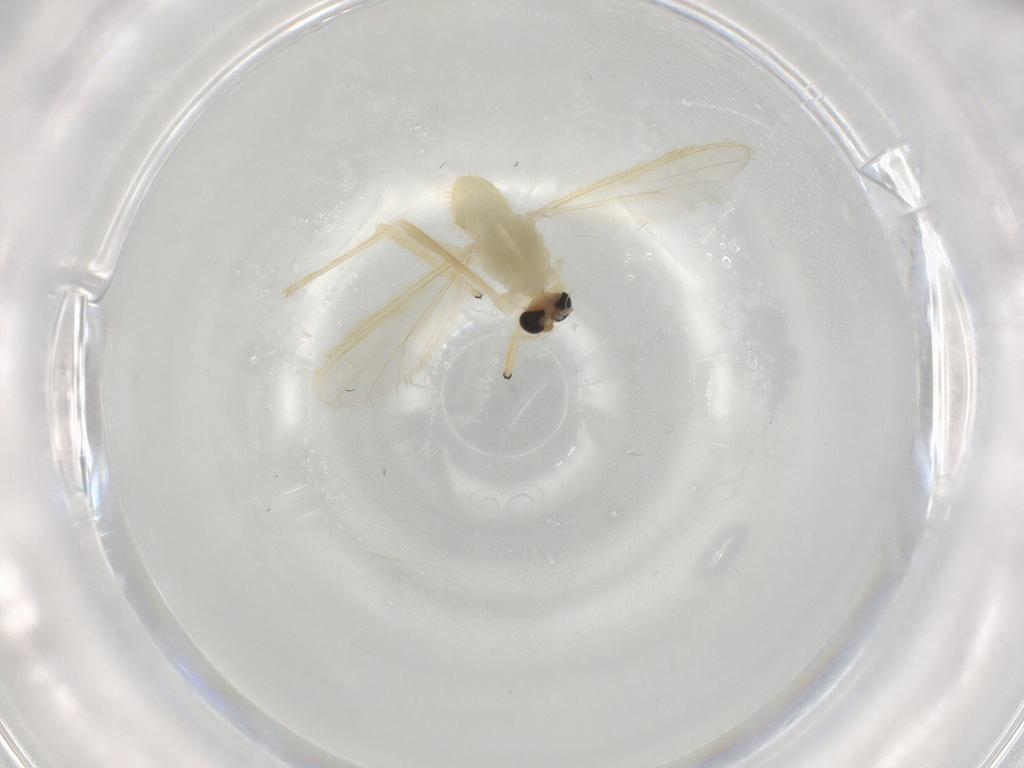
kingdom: Animalia
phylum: Arthropoda
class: Insecta
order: Diptera
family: Chironomidae
